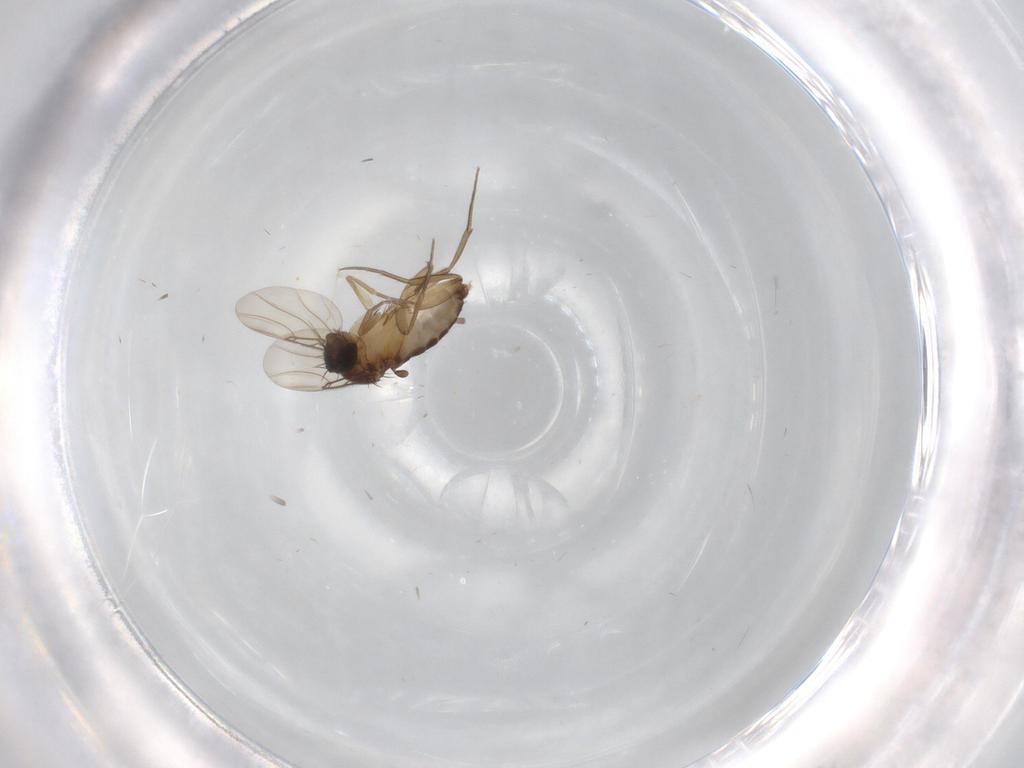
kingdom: Animalia
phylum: Arthropoda
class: Insecta
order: Diptera
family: Phoridae
